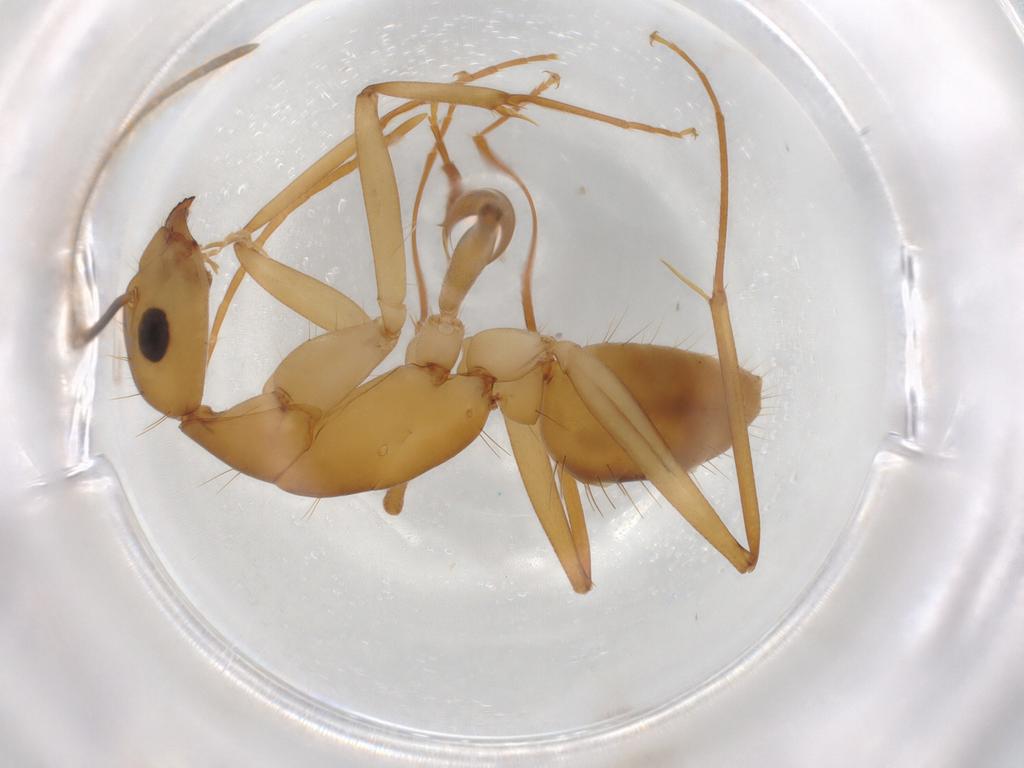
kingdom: Animalia
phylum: Arthropoda
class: Insecta
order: Hymenoptera
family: Formicidae
